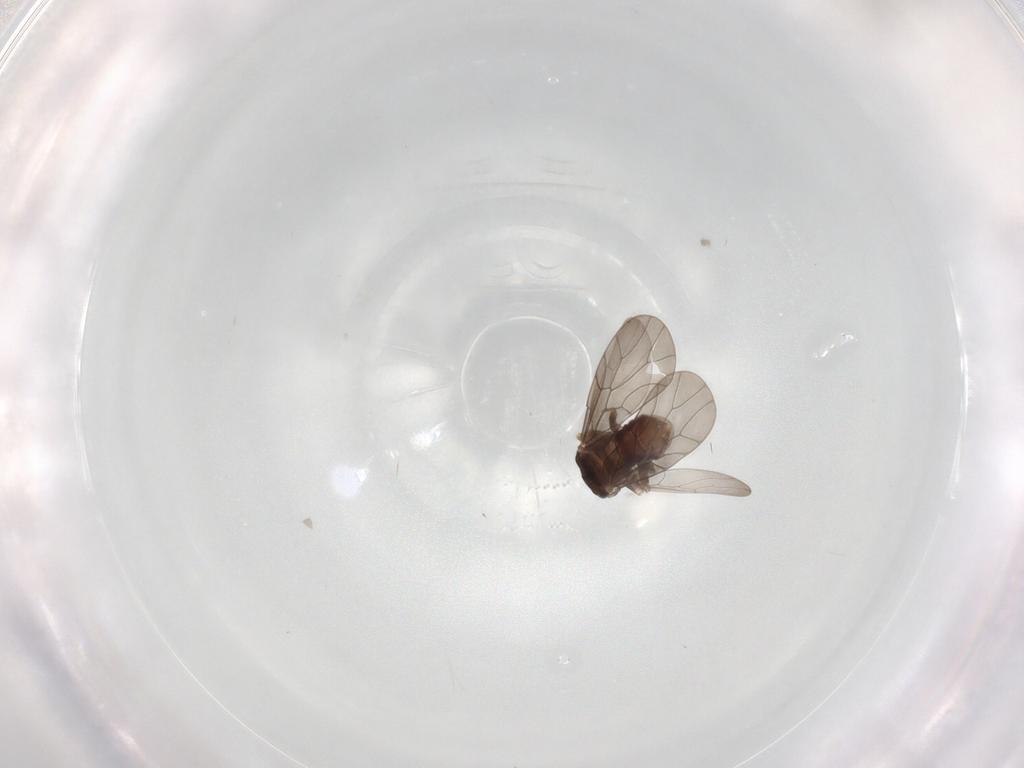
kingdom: Animalia
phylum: Arthropoda
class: Insecta
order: Psocodea
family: Lepidopsocidae
